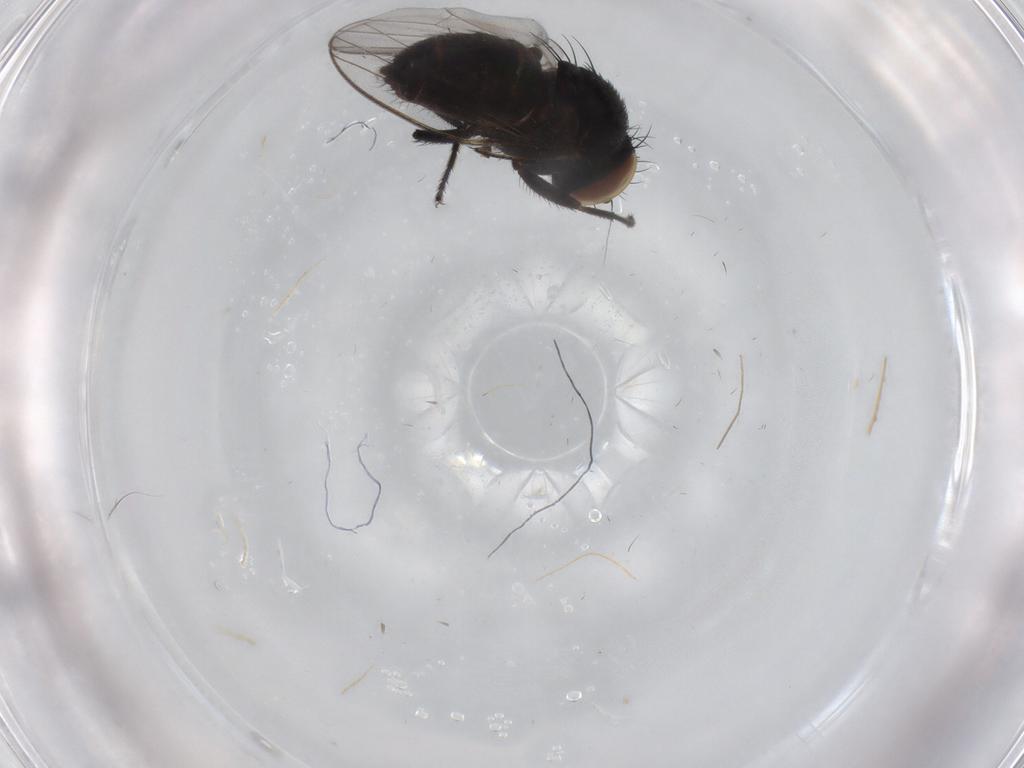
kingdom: Animalia
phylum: Arthropoda
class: Insecta
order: Diptera
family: Milichiidae
